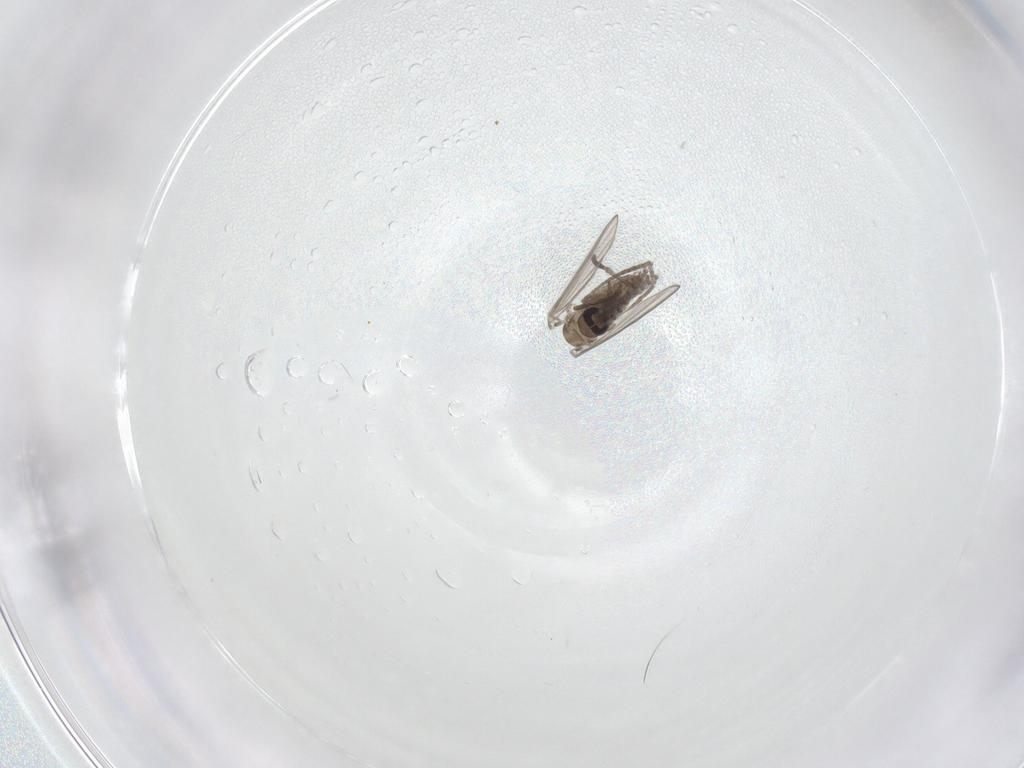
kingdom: Animalia
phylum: Arthropoda
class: Insecta
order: Diptera
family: Psychodidae
